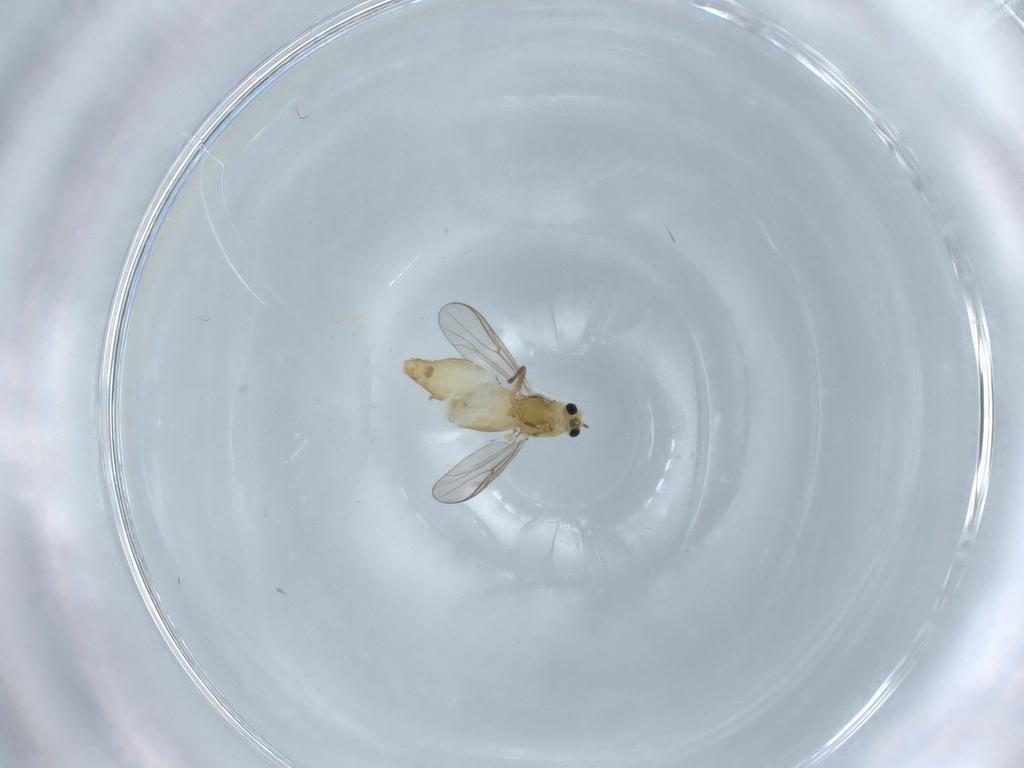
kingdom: Animalia
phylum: Arthropoda
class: Insecta
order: Diptera
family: Chironomidae
